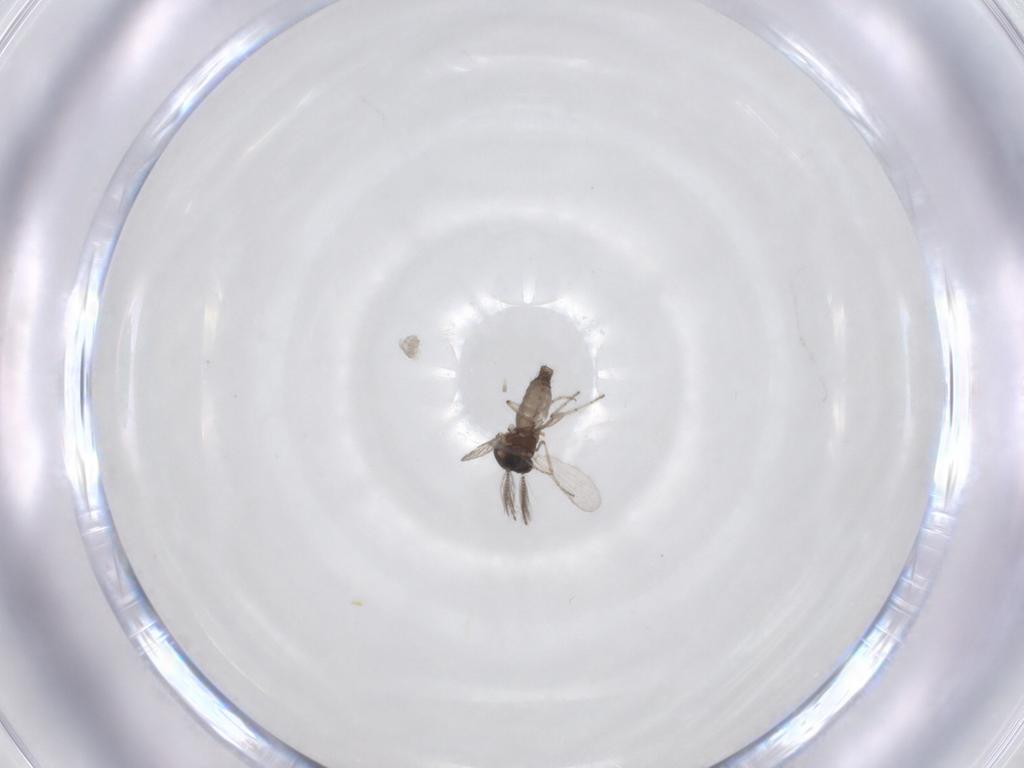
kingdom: Animalia
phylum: Arthropoda
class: Insecta
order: Diptera
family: Ceratopogonidae
